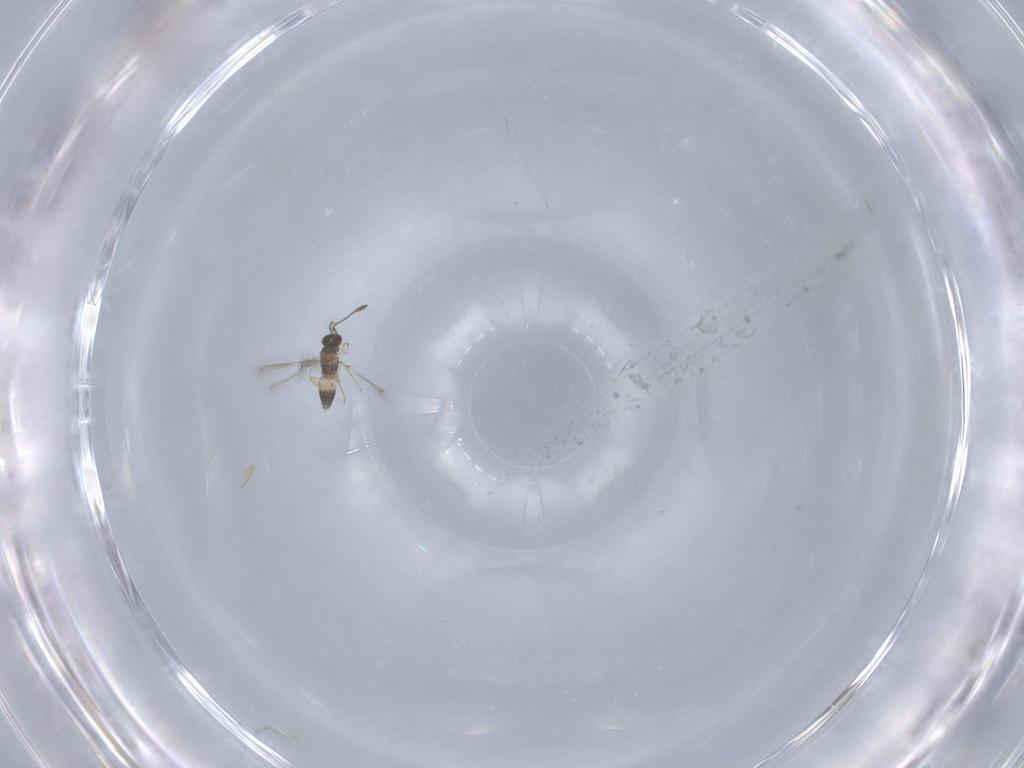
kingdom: Animalia
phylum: Arthropoda
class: Insecta
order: Hymenoptera
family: Mymaridae
